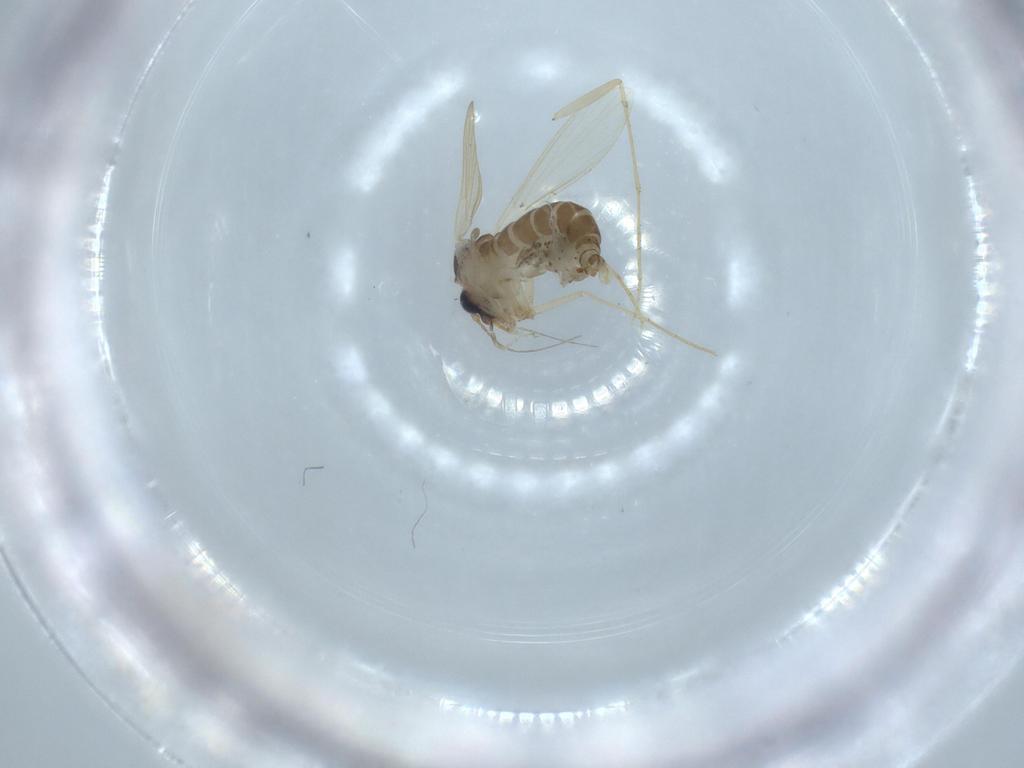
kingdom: Animalia
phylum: Arthropoda
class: Insecta
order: Diptera
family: Psychodidae
